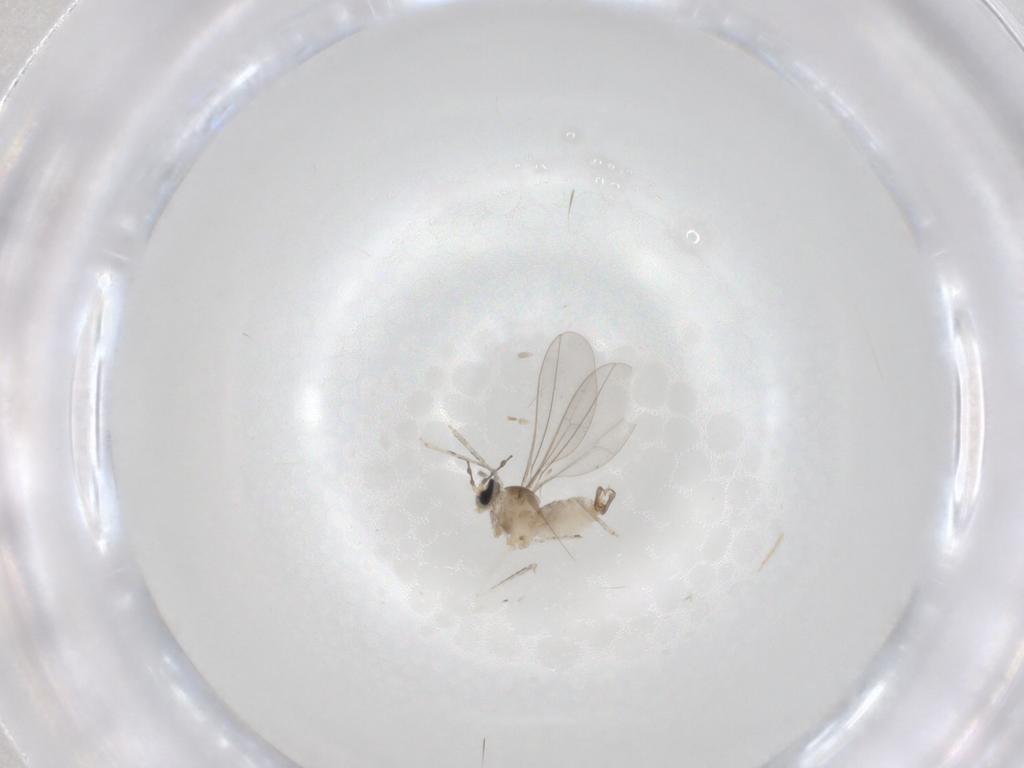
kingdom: Animalia
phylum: Arthropoda
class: Insecta
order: Diptera
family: Cecidomyiidae
